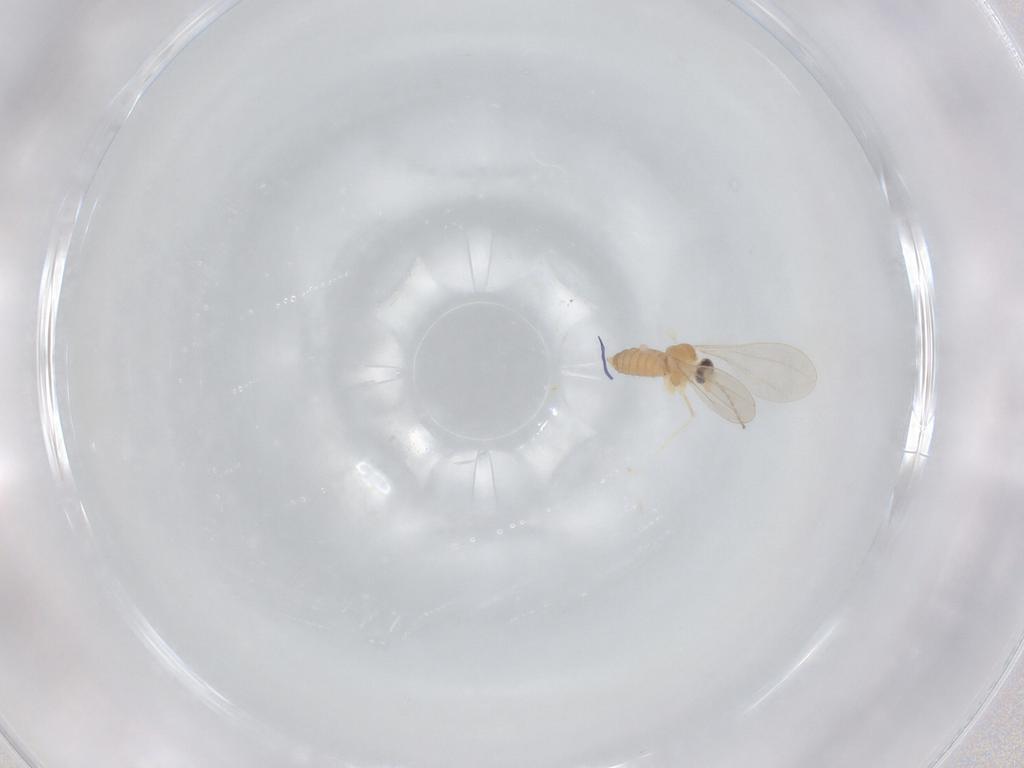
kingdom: Animalia
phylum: Arthropoda
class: Insecta
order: Diptera
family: Cecidomyiidae
